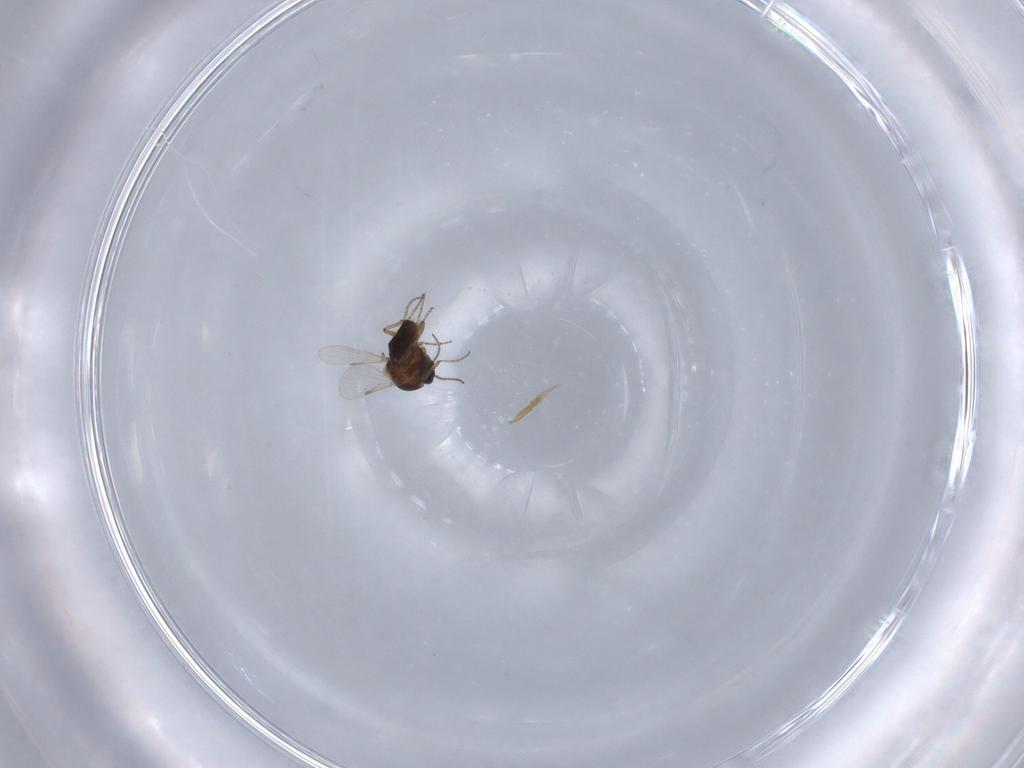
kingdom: Animalia
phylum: Arthropoda
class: Insecta
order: Diptera
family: Ceratopogonidae
